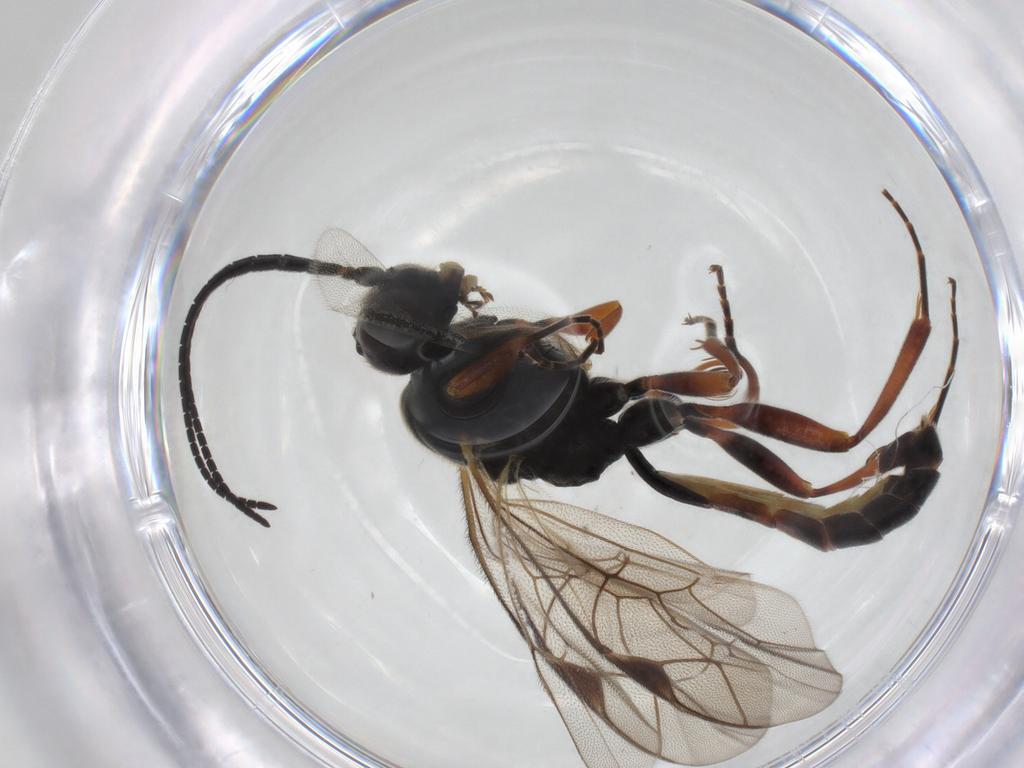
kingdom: Animalia
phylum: Arthropoda
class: Insecta
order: Hymenoptera
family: Ichneumonidae
